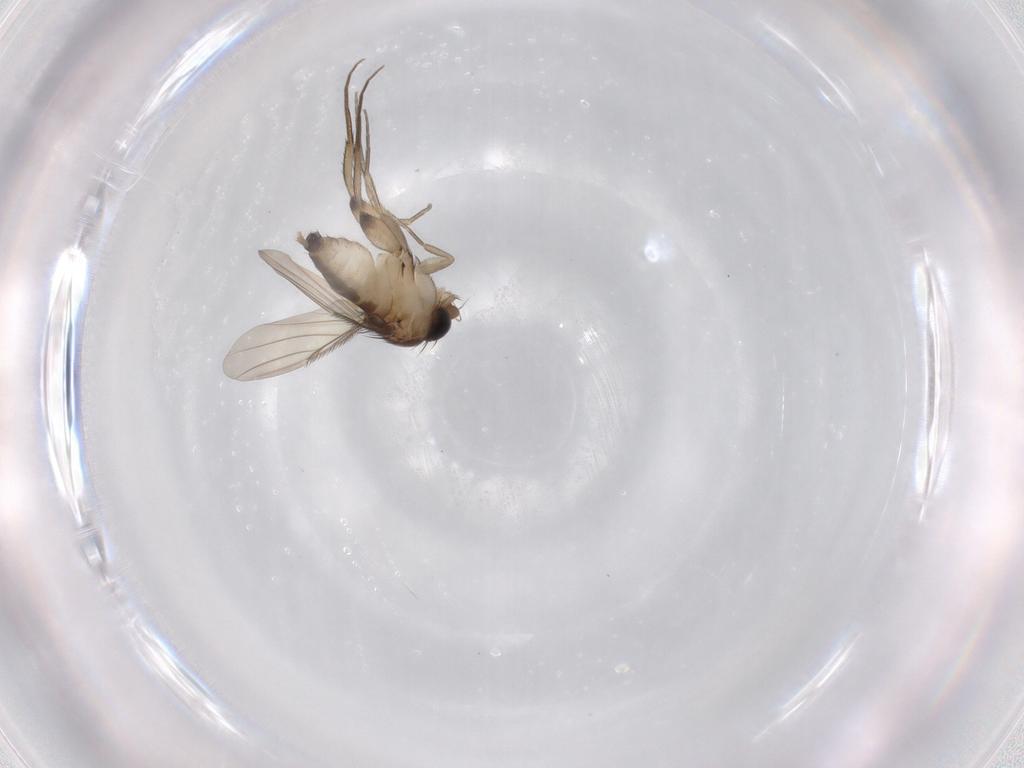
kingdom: Animalia
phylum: Arthropoda
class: Insecta
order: Diptera
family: Phoridae
